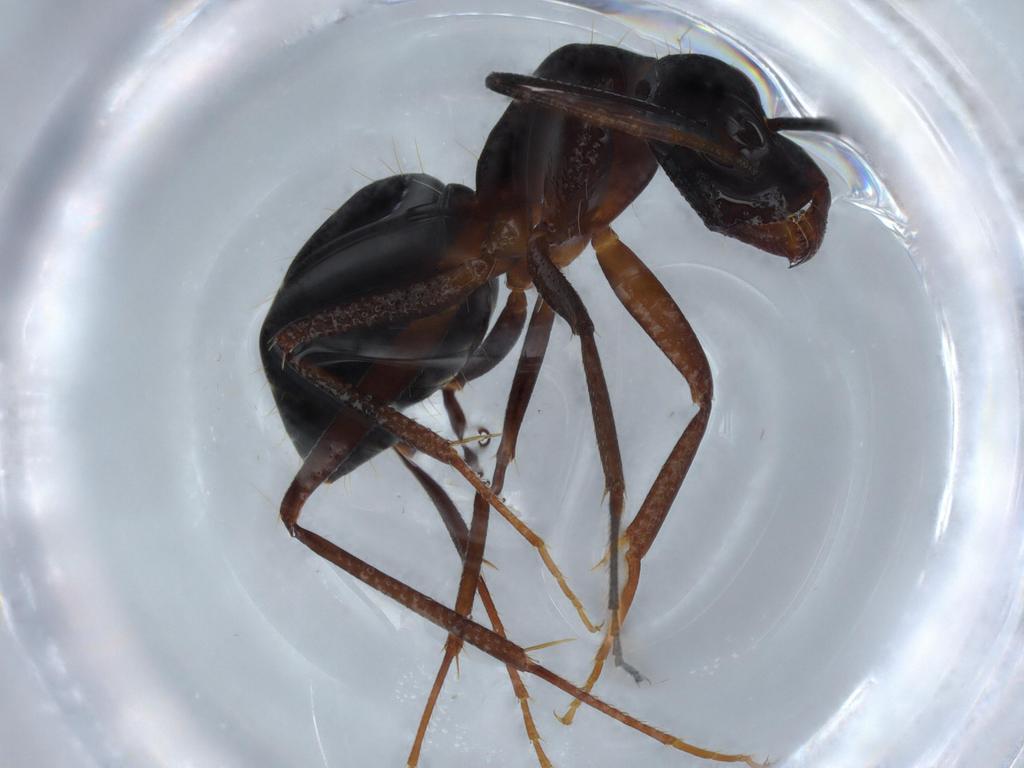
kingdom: Animalia
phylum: Arthropoda
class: Insecta
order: Hymenoptera
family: Formicidae
